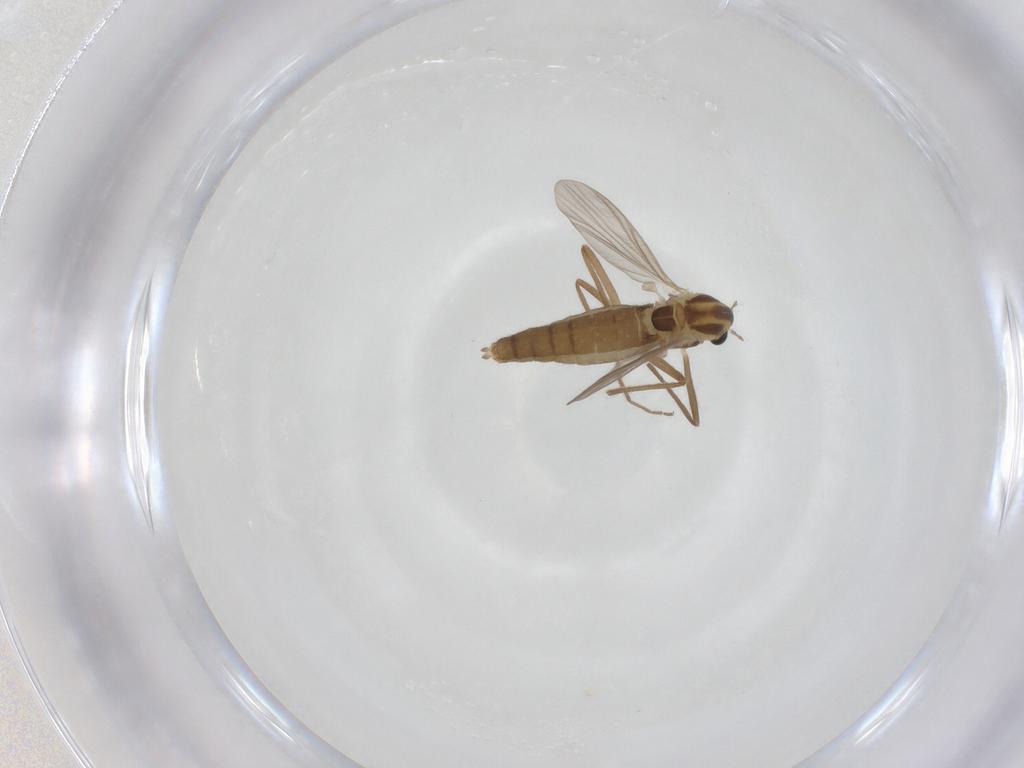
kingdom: Animalia
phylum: Arthropoda
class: Insecta
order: Diptera
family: Chironomidae
